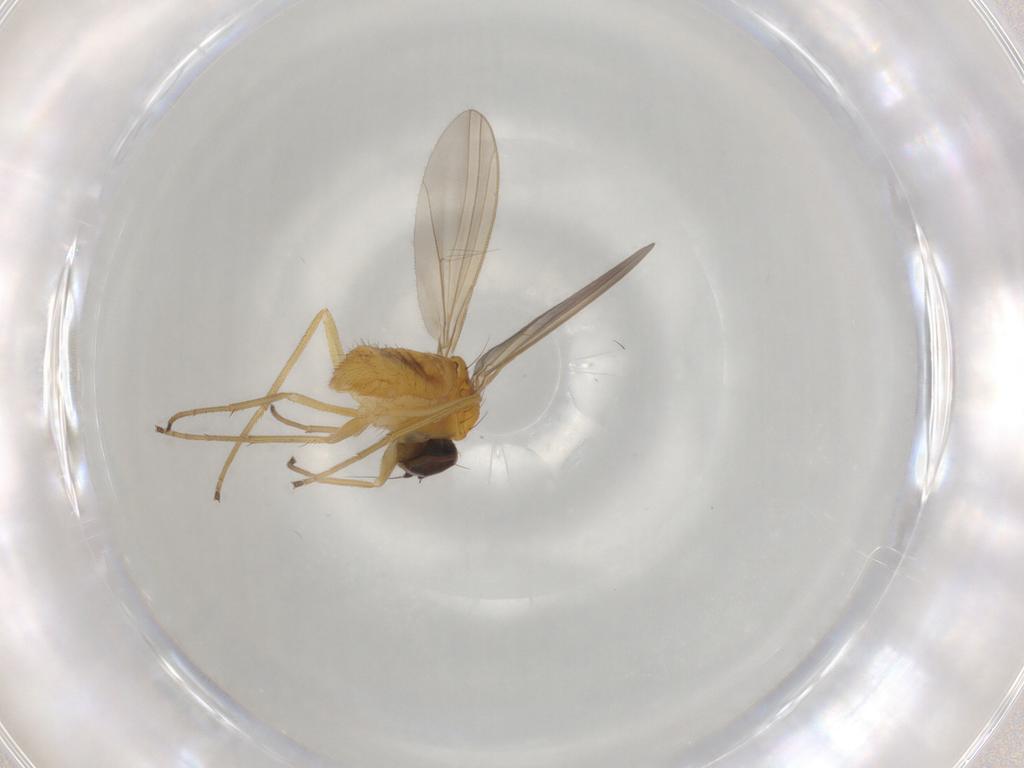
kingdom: Animalia
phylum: Arthropoda
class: Insecta
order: Diptera
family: Dolichopodidae
